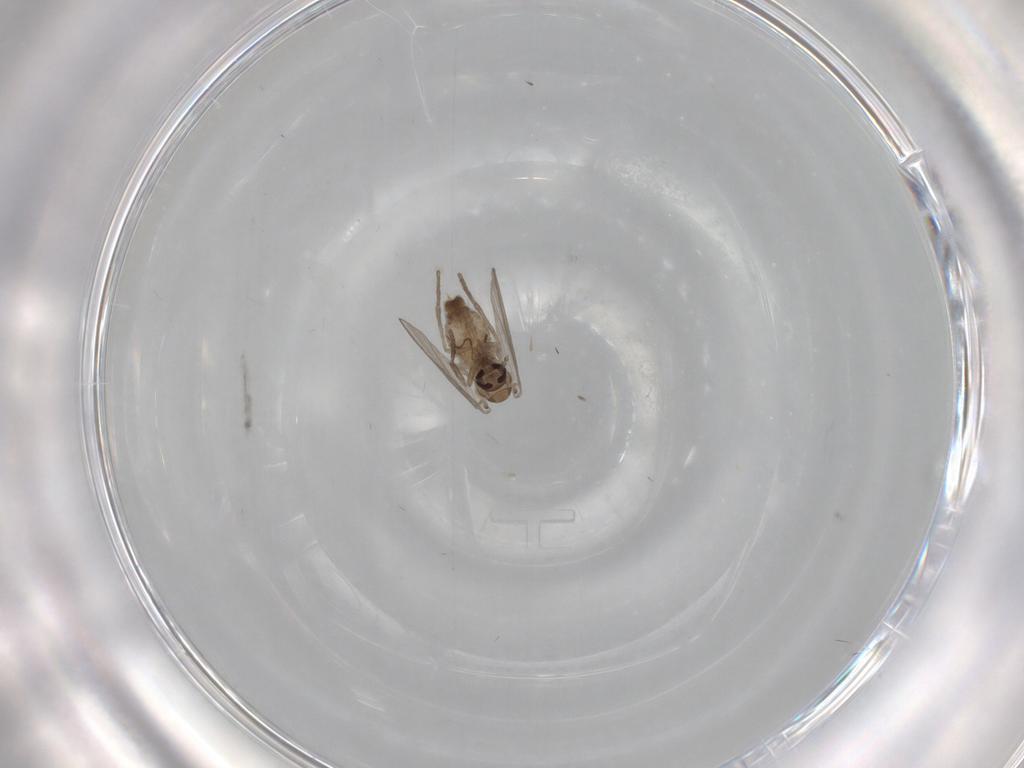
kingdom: Animalia
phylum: Arthropoda
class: Insecta
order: Diptera
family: Psychodidae
